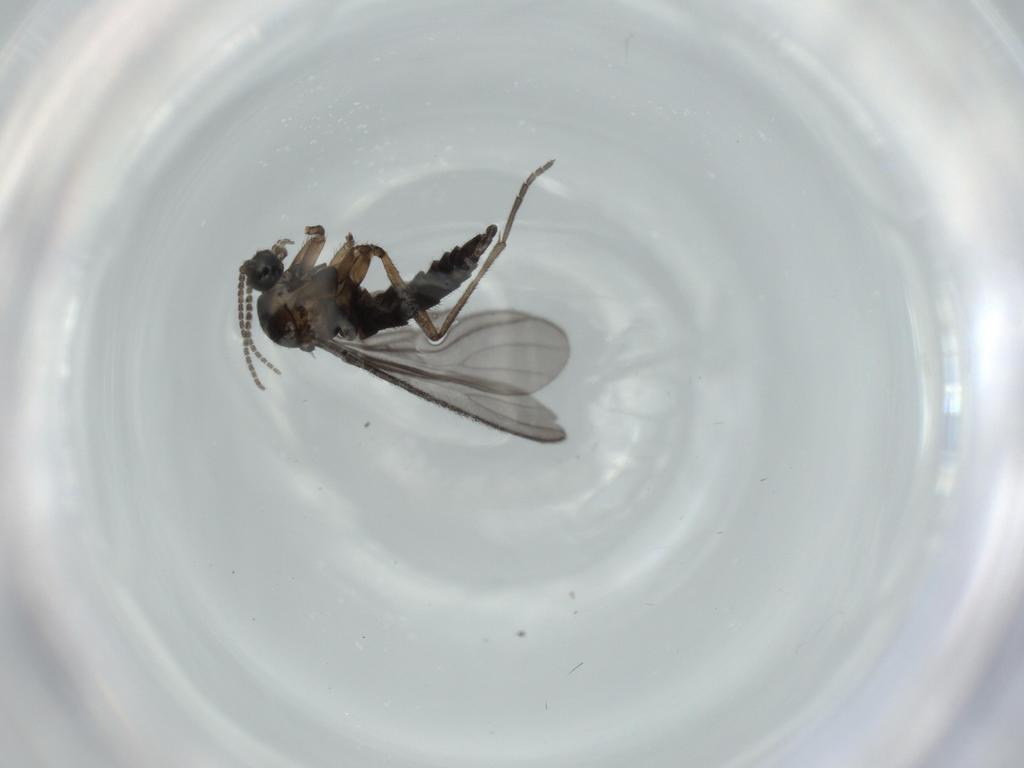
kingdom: Animalia
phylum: Arthropoda
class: Insecta
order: Diptera
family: Sciaridae
